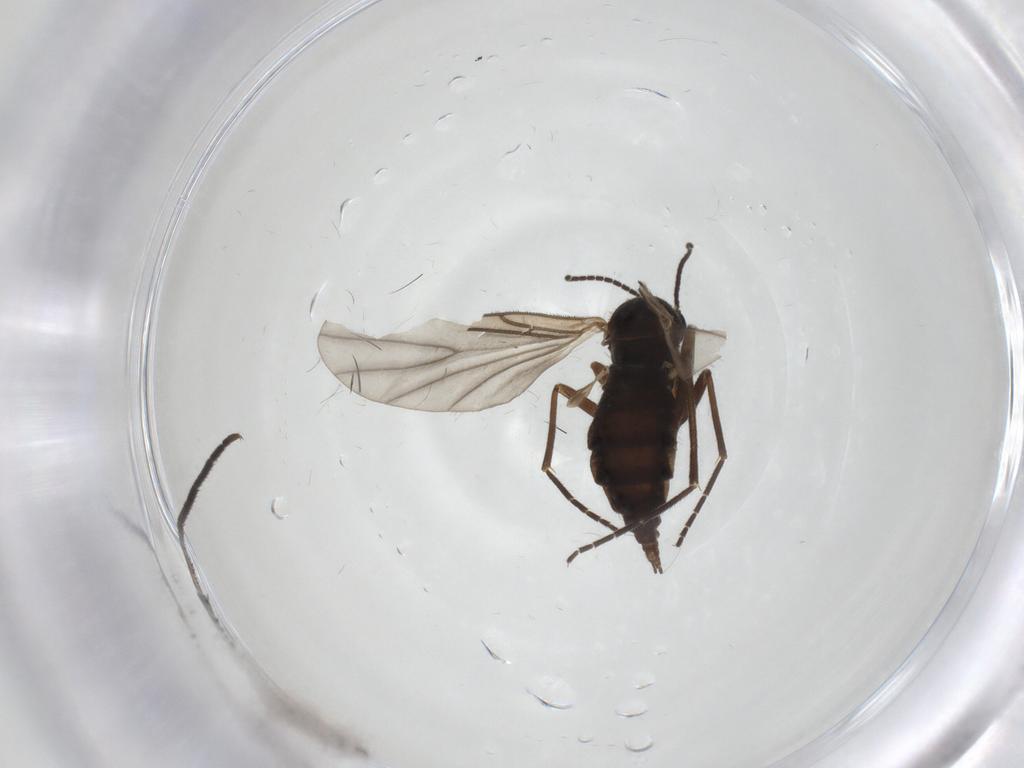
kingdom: Animalia
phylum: Arthropoda
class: Insecta
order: Diptera
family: Sciaridae
